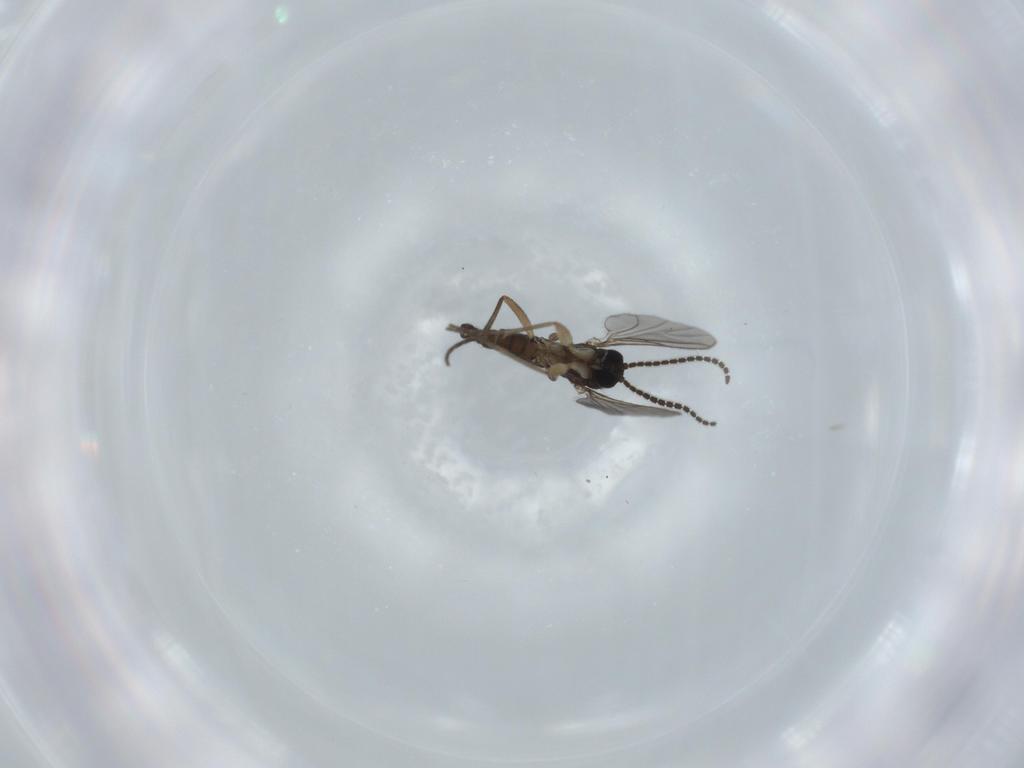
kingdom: Animalia
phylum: Arthropoda
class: Insecta
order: Diptera
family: Sciaridae
